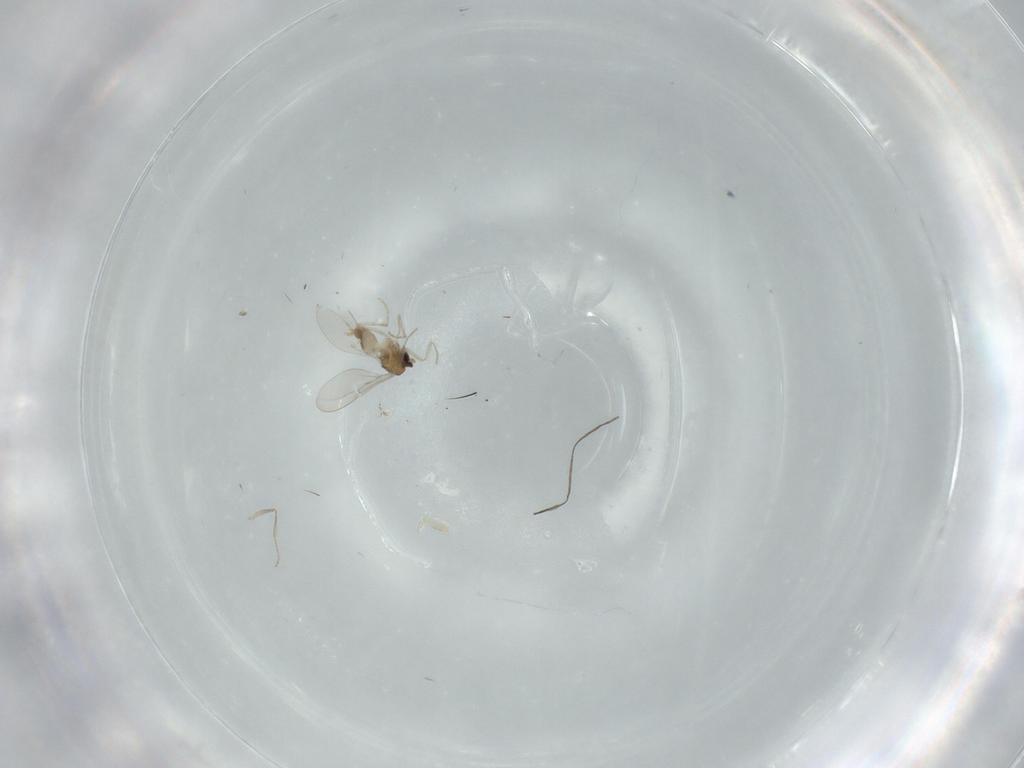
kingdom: Animalia
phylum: Arthropoda
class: Insecta
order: Diptera
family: Cecidomyiidae
